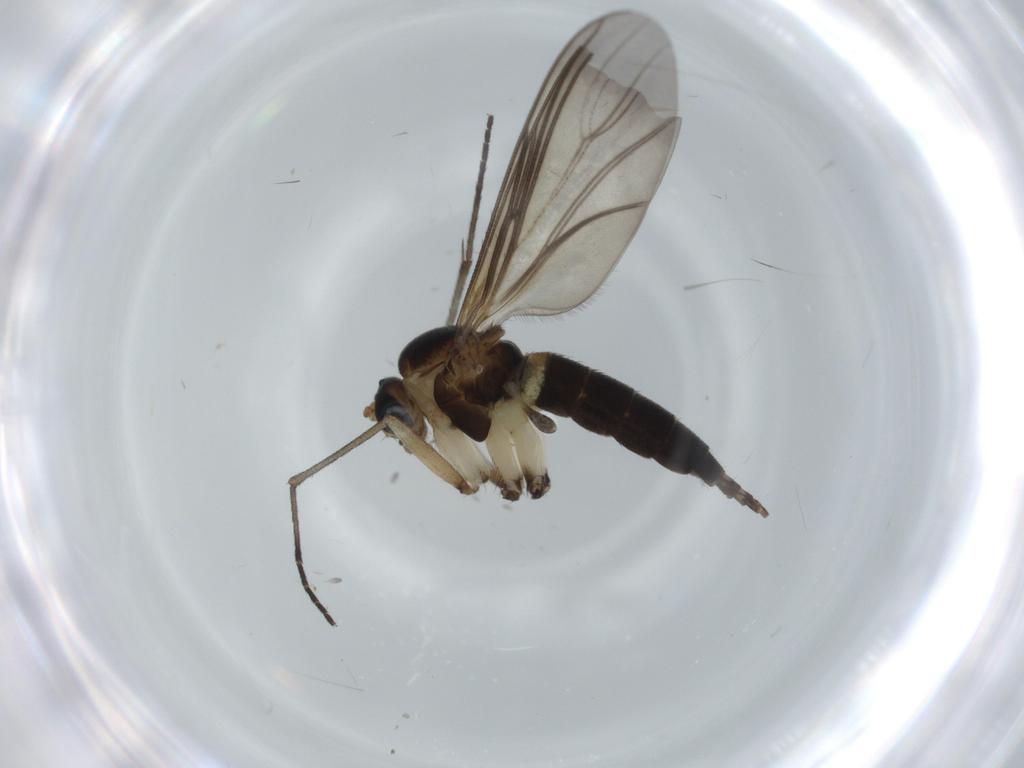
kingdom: Animalia
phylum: Arthropoda
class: Insecta
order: Diptera
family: Sciaridae
